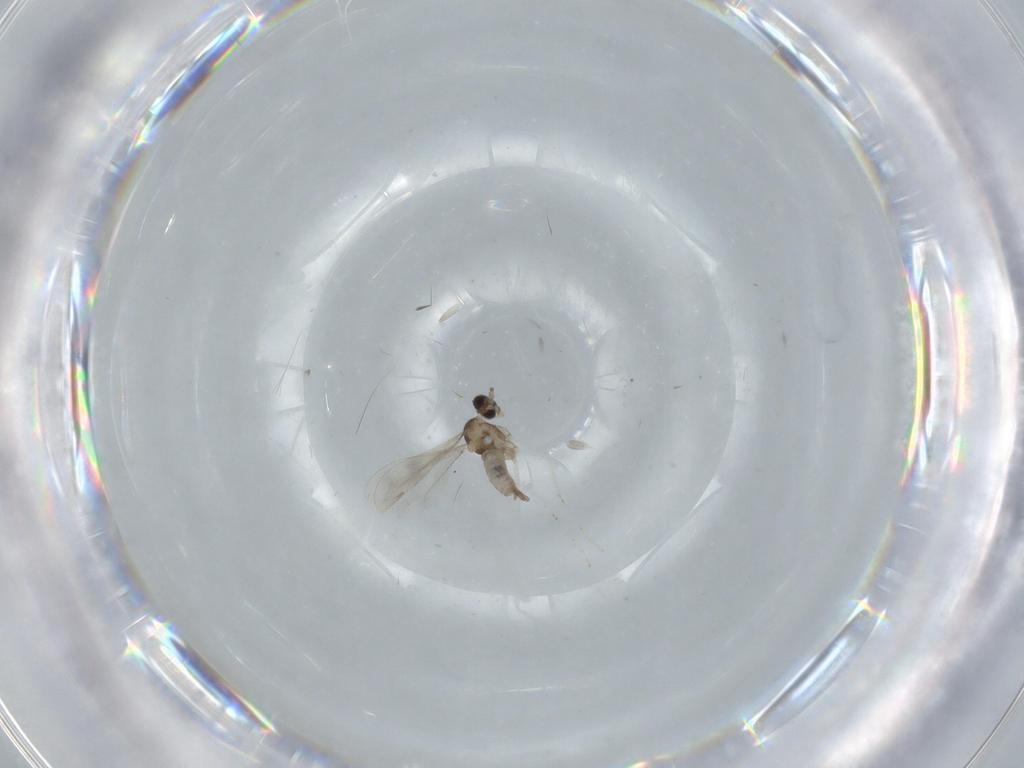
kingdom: Animalia
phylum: Arthropoda
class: Insecta
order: Diptera
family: Cecidomyiidae
